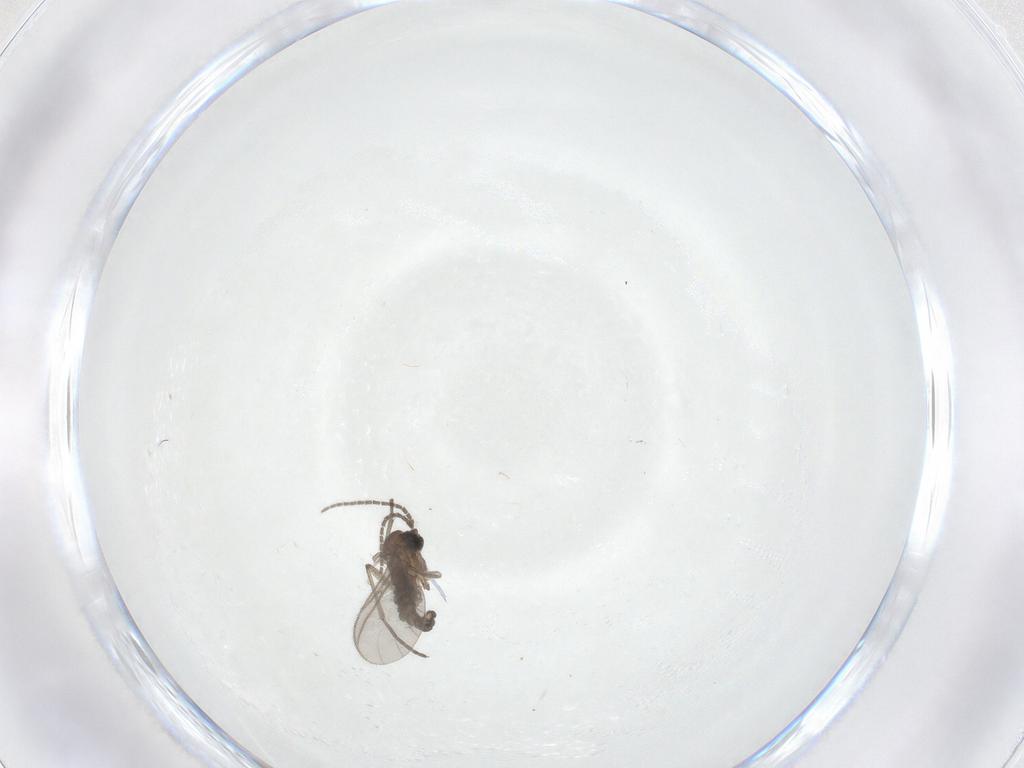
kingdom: Animalia
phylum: Arthropoda
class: Insecta
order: Diptera
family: Sciaridae
